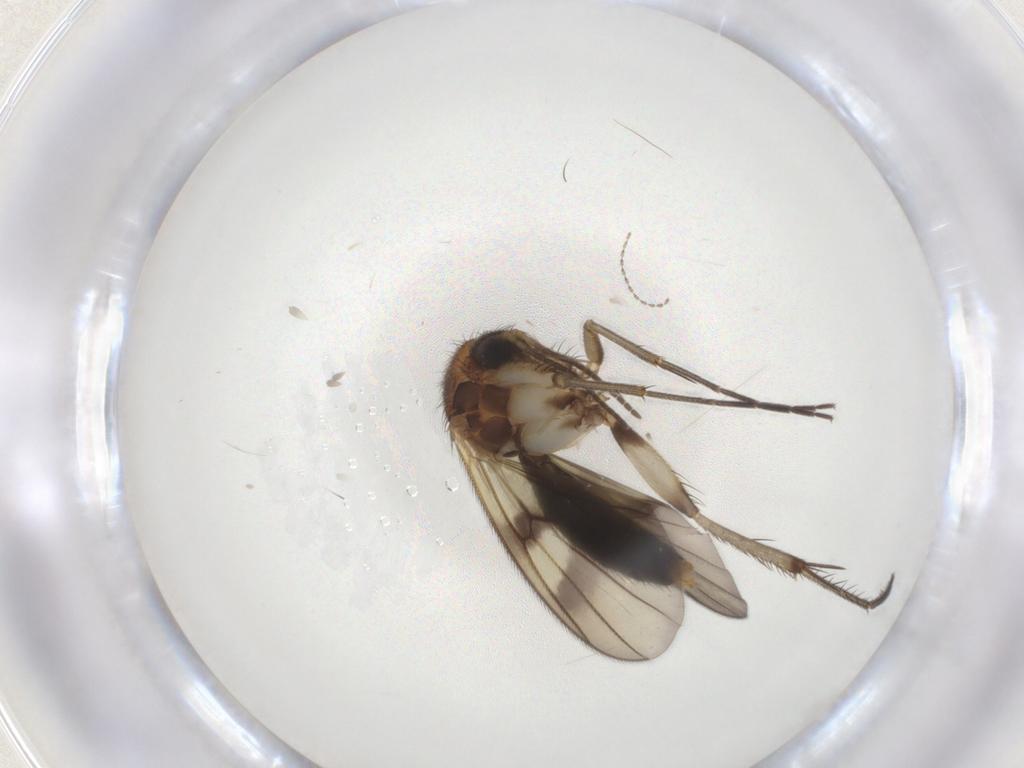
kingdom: Animalia
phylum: Arthropoda
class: Insecta
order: Diptera
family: Mycetophilidae
